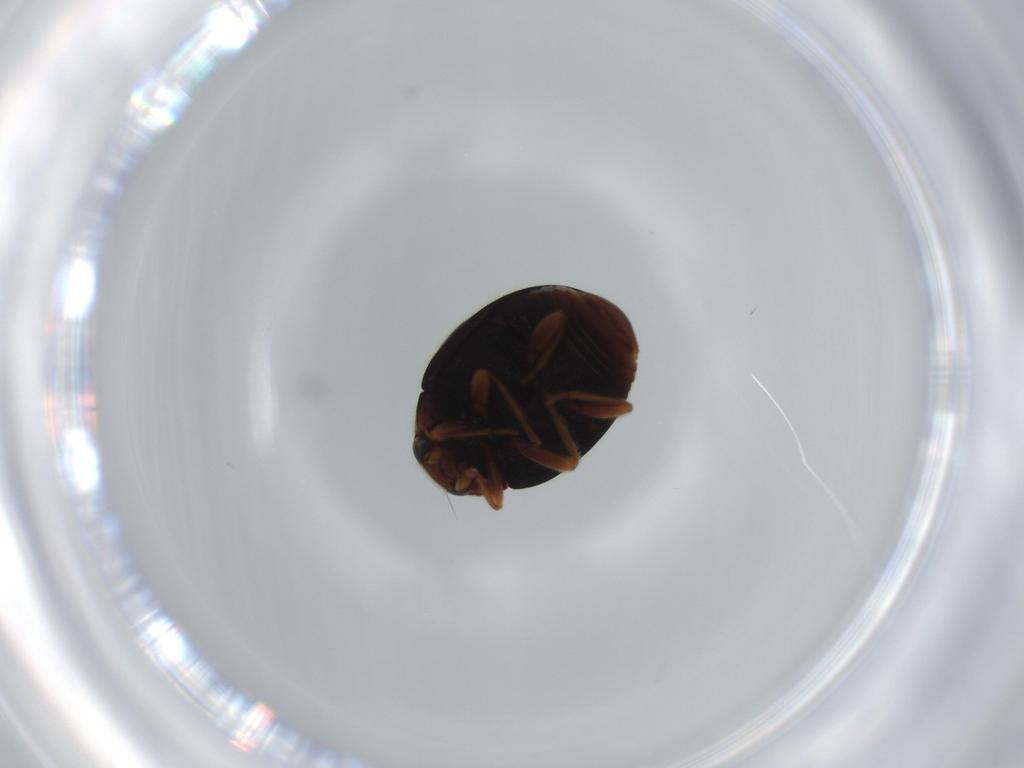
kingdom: Animalia
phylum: Arthropoda
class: Insecta
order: Coleoptera
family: Coccinellidae
